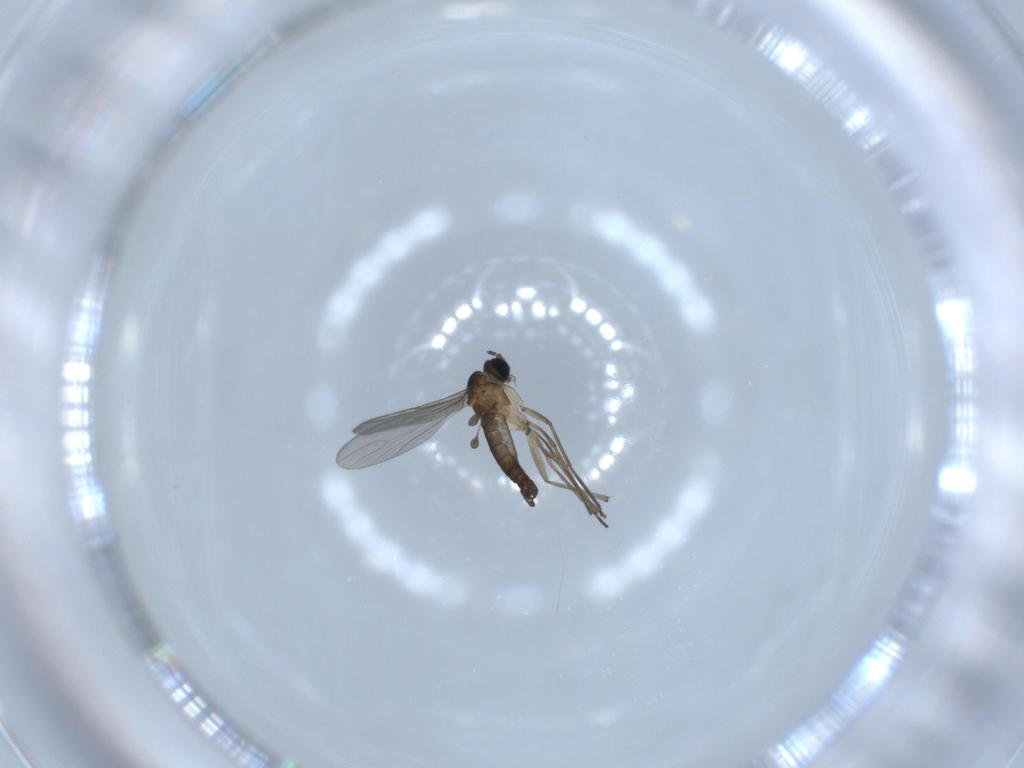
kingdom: Animalia
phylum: Arthropoda
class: Insecta
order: Diptera
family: Sciaridae
